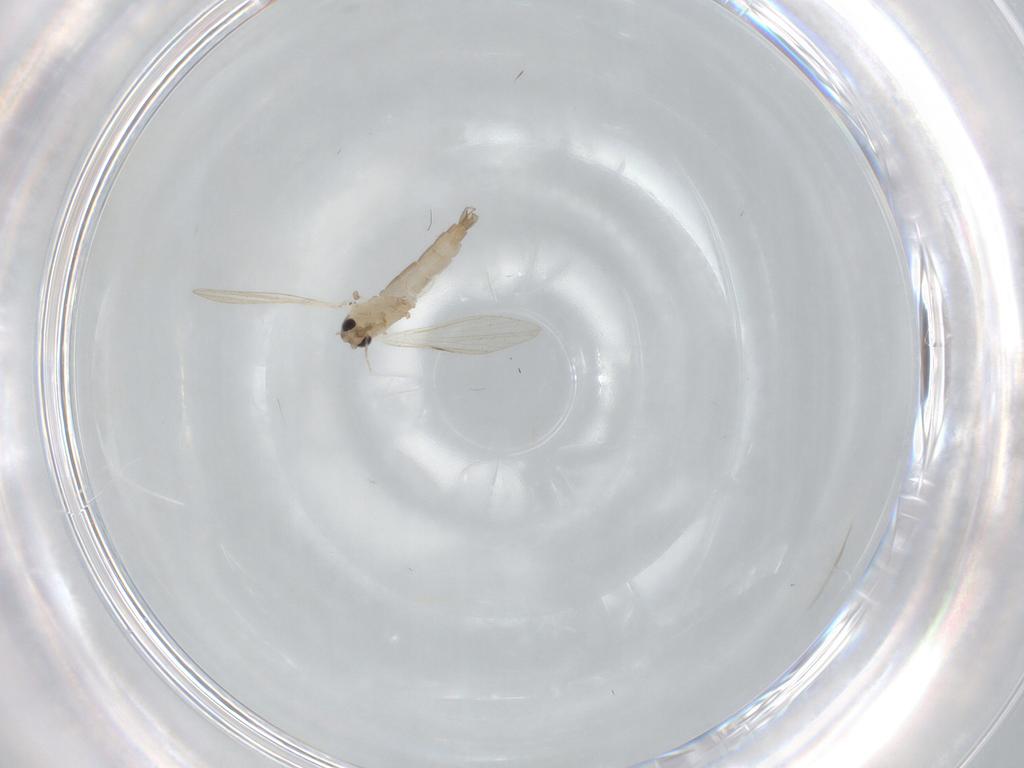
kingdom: Animalia
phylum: Arthropoda
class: Insecta
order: Diptera
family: Psychodidae
